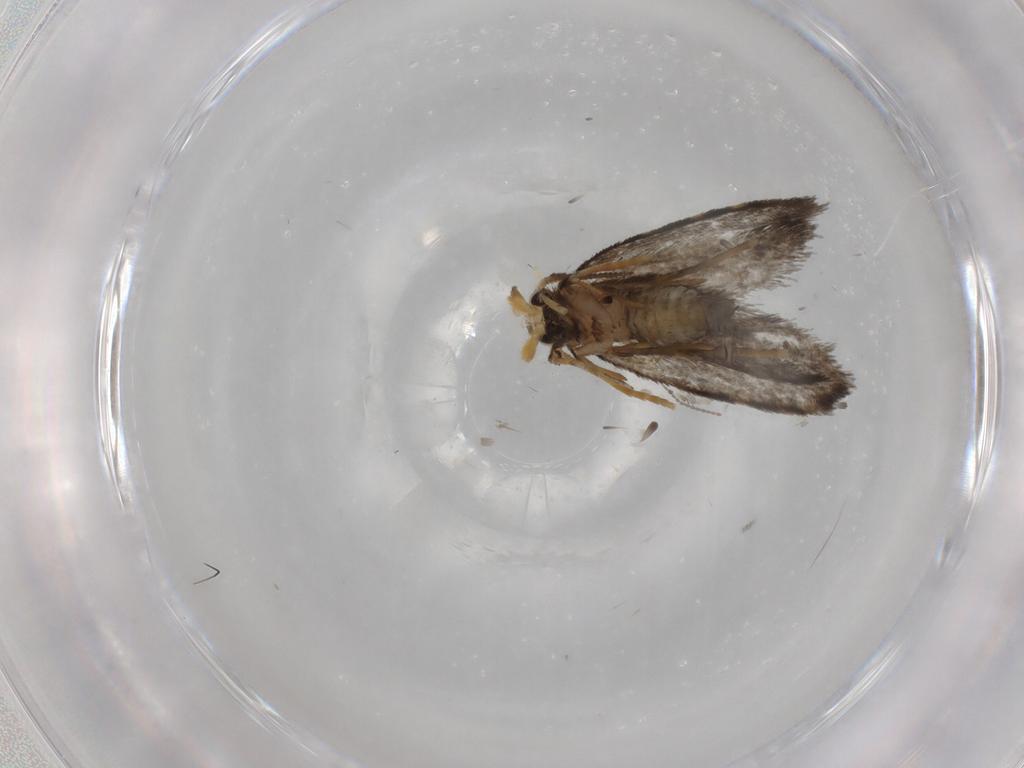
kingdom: Animalia
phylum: Arthropoda
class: Insecta
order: Lepidoptera
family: Psychidae
